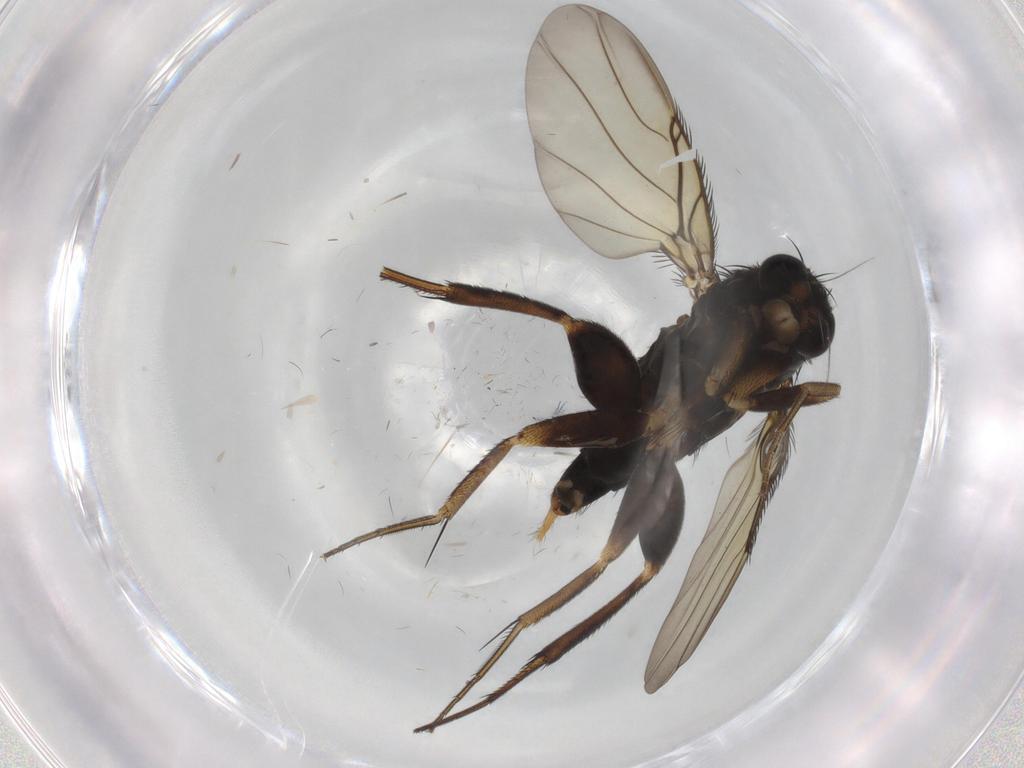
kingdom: Animalia
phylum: Arthropoda
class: Insecta
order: Diptera
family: Phoridae
